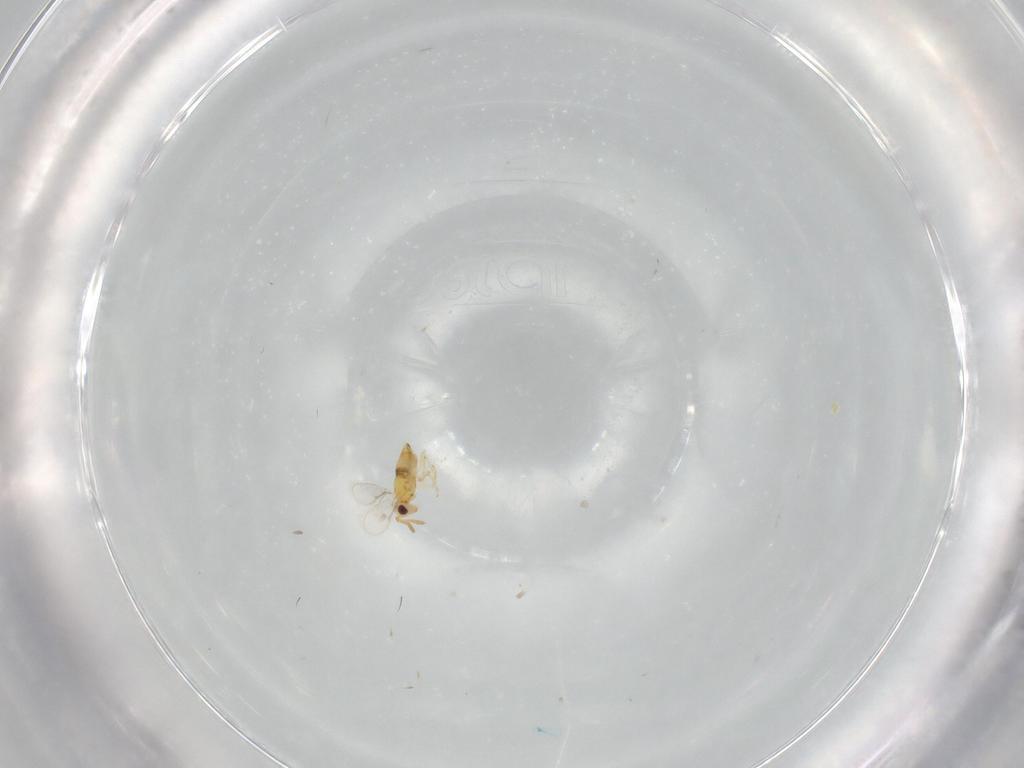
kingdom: Animalia
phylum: Arthropoda
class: Insecta
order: Hymenoptera
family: Aphelinidae
